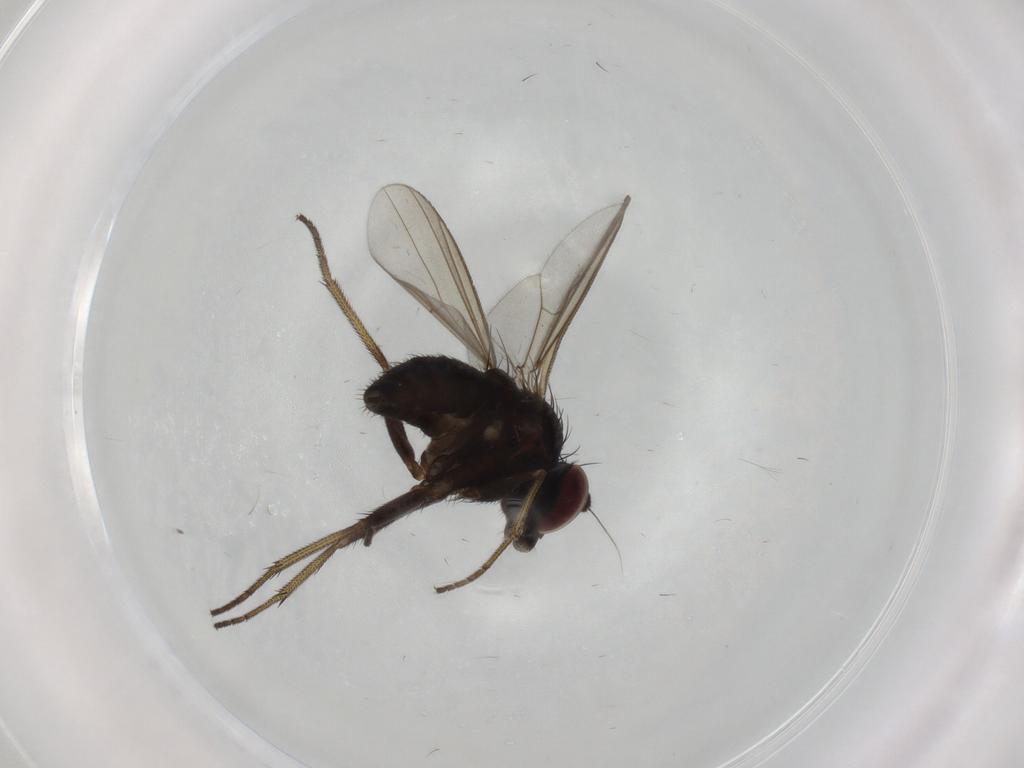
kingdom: Animalia
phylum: Arthropoda
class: Insecta
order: Diptera
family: Dolichopodidae
